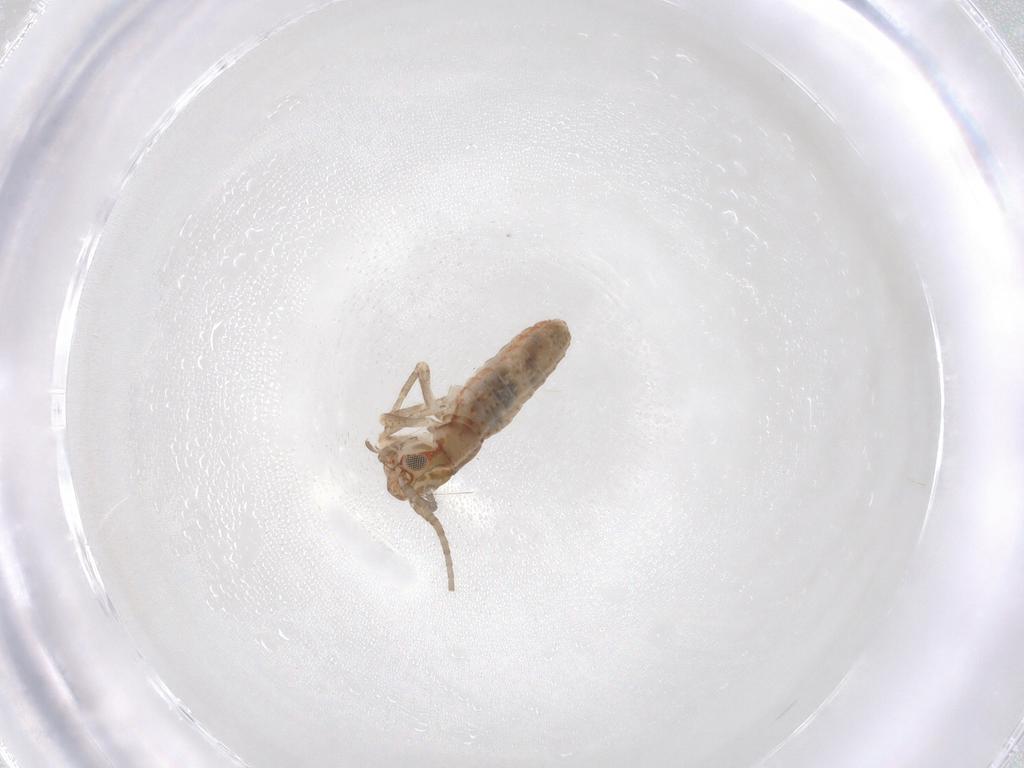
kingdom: Animalia
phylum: Arthropoda
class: Insecta
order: Orthoptera
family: Mogoplistidae
